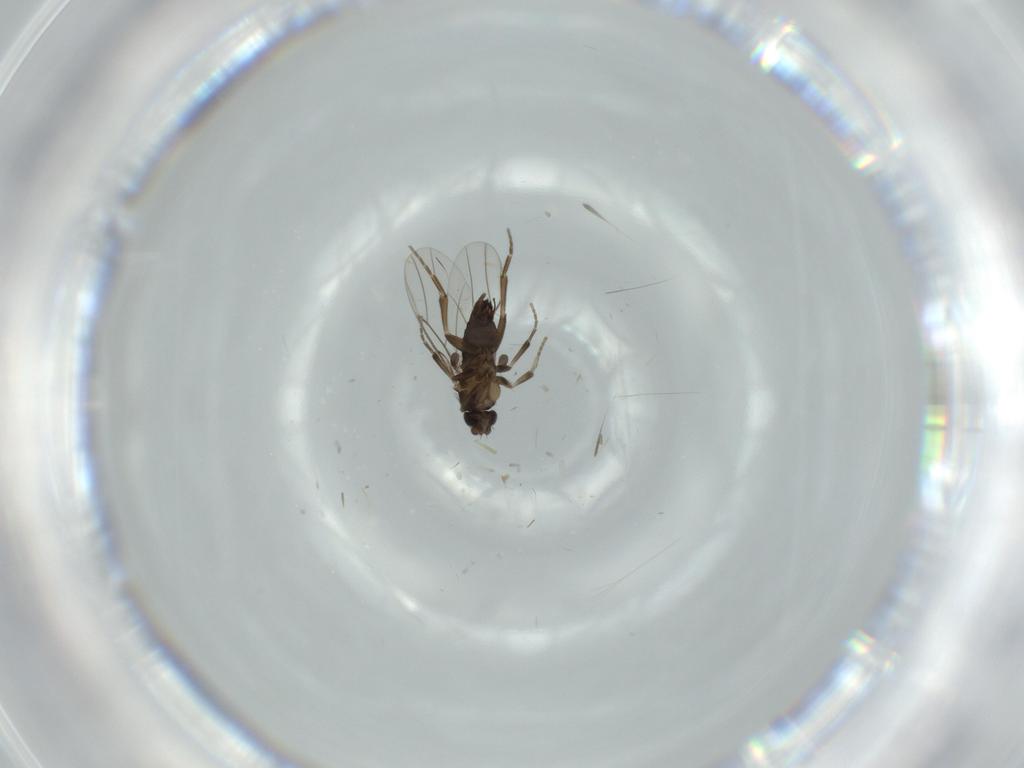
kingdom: Animalia
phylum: Arthropoda
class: Insecta
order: Diptera
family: Phoridae
